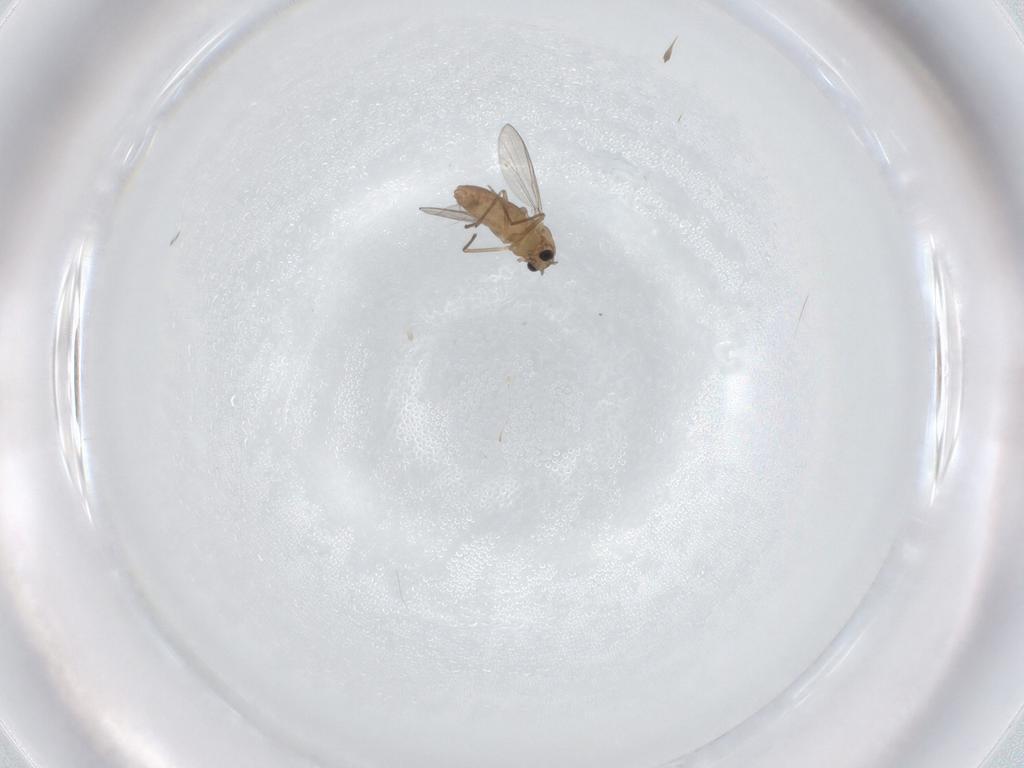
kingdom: Animalia
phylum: Arthropoda
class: Insecta
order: Diptera
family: Chironomidae
